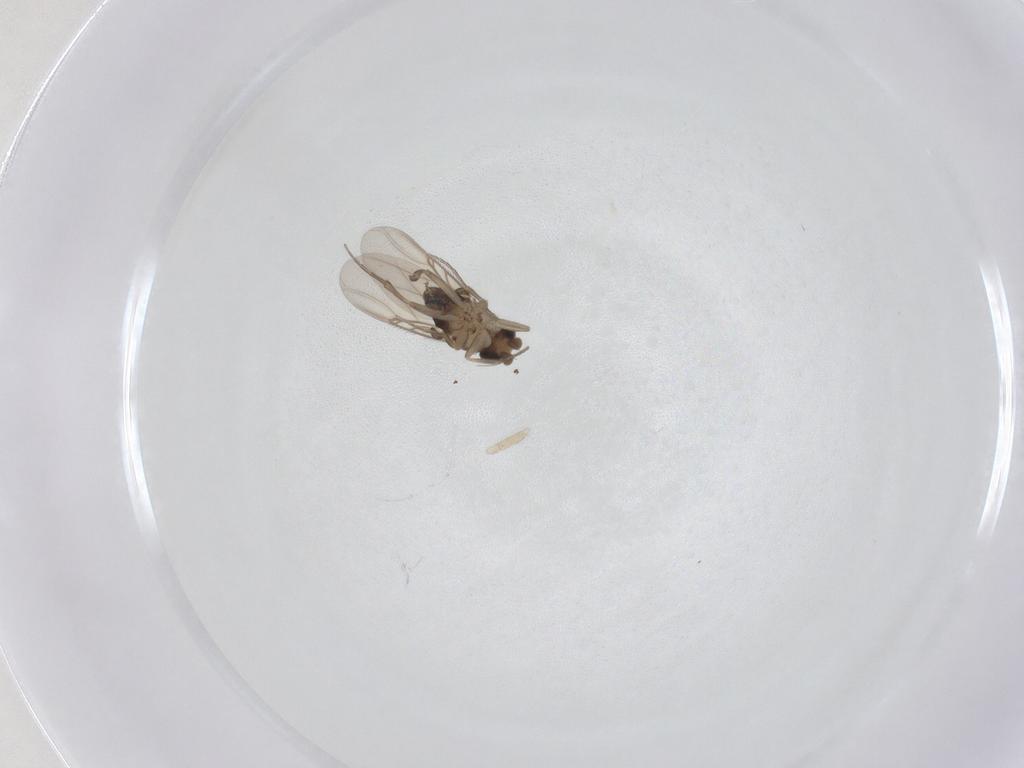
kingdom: Animalia
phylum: Arthropoda
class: Insecta
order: Diptera
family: Phoridae
